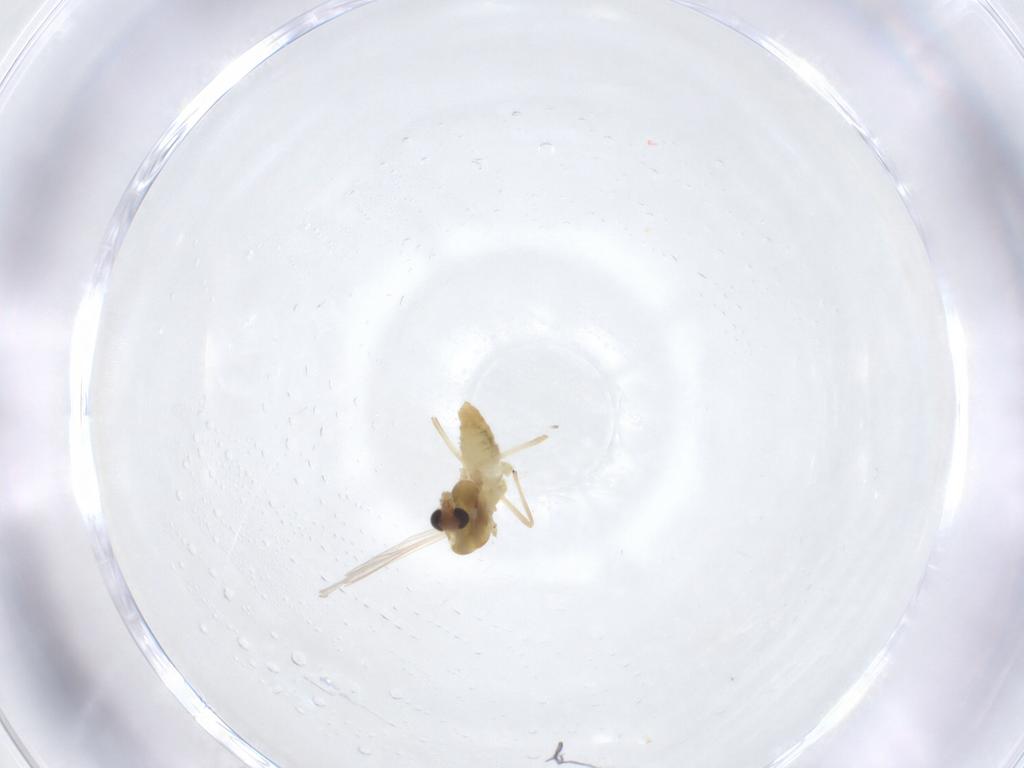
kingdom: Animalia
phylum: Arthropoda
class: Insecta
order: Diptera
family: Chironomidae
